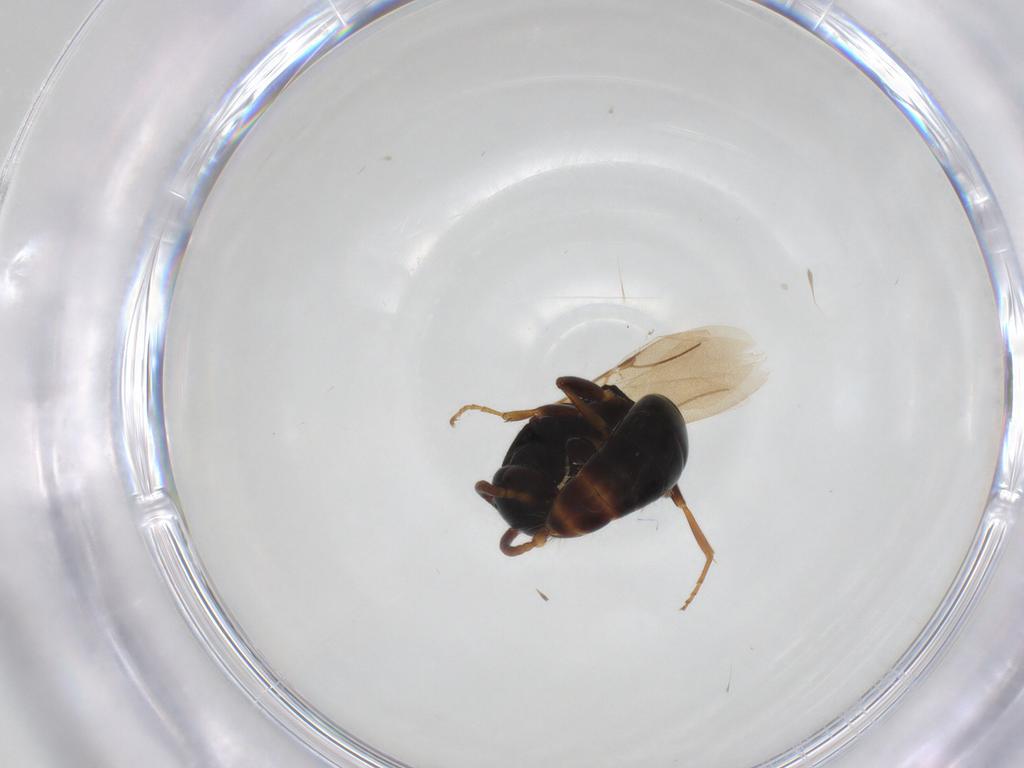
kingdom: Animalia
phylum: Arthropoda
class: Insecta
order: Hymenoptera
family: Bethylidae
